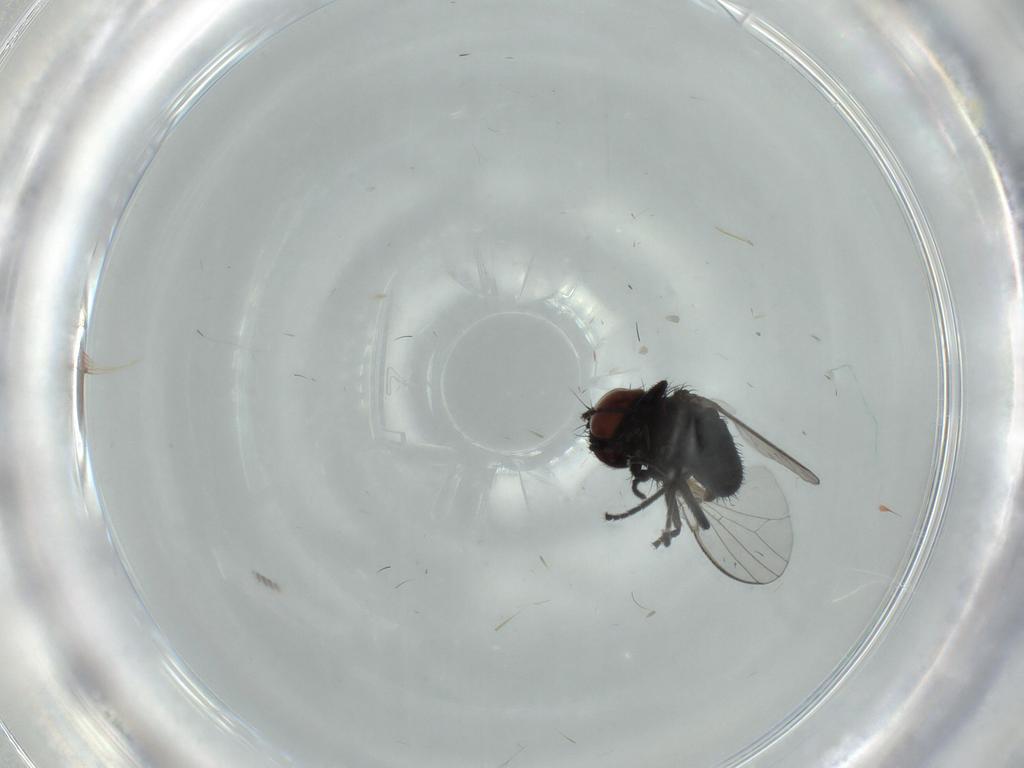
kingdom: Animalia
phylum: Arthropoda
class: Insecta
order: Diptera
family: Milichiidae
